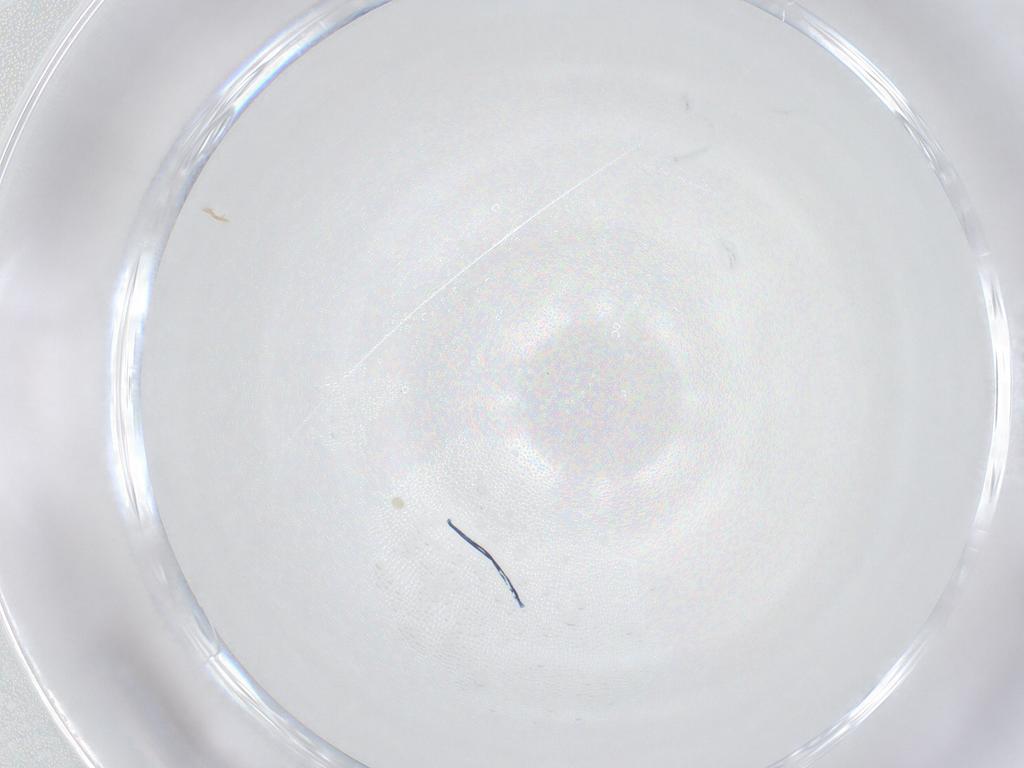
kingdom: Animalia
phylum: Arthropoda
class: Arachnida
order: Sarcoptiformes
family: Nanorchestidae
